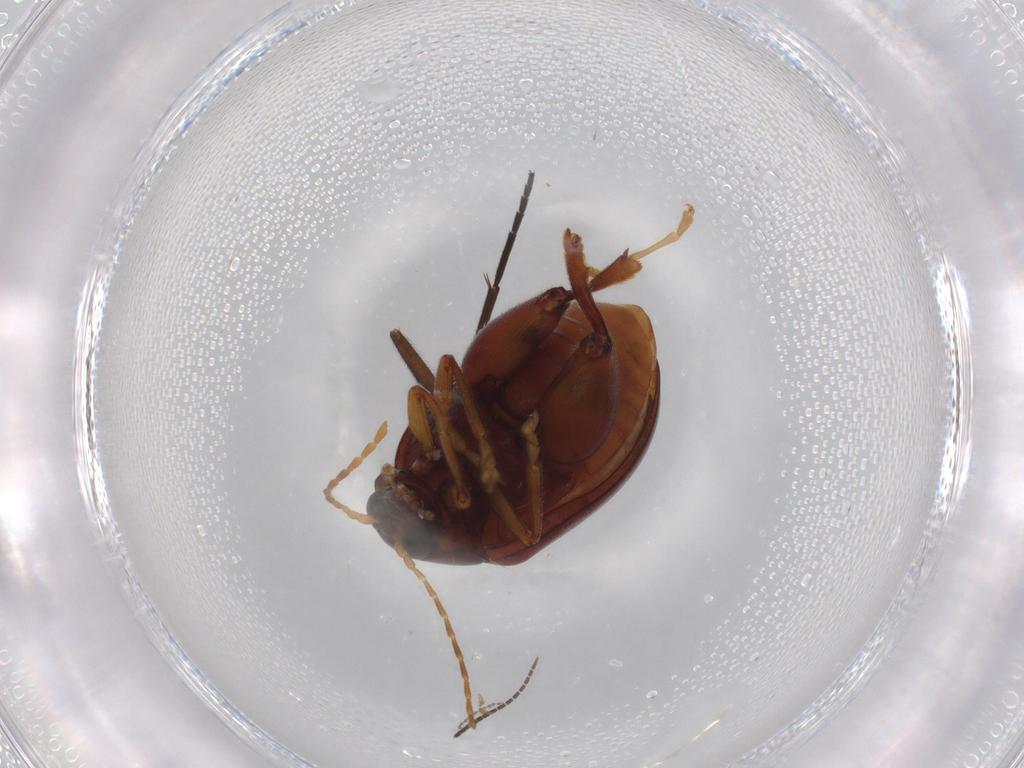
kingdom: Animalia
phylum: Arthropoda
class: Insecta
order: Coleoptera
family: Chrysomelidae
